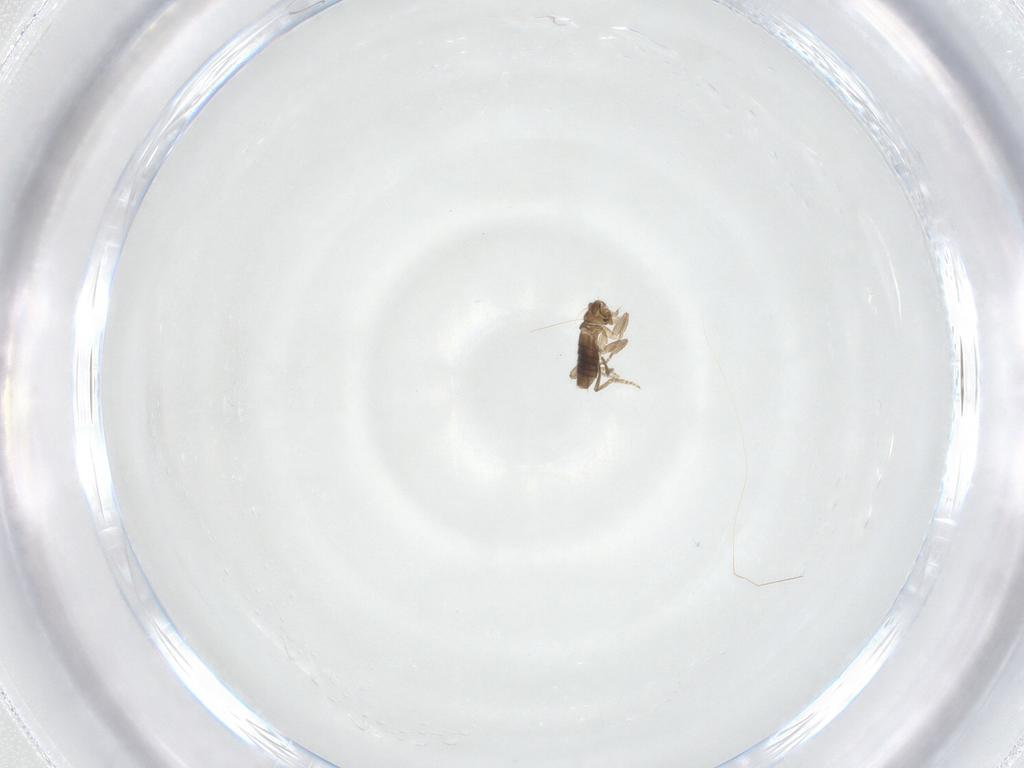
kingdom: Animalia
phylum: Arthropoda
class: Insecta
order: Diptera
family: Phoridae
